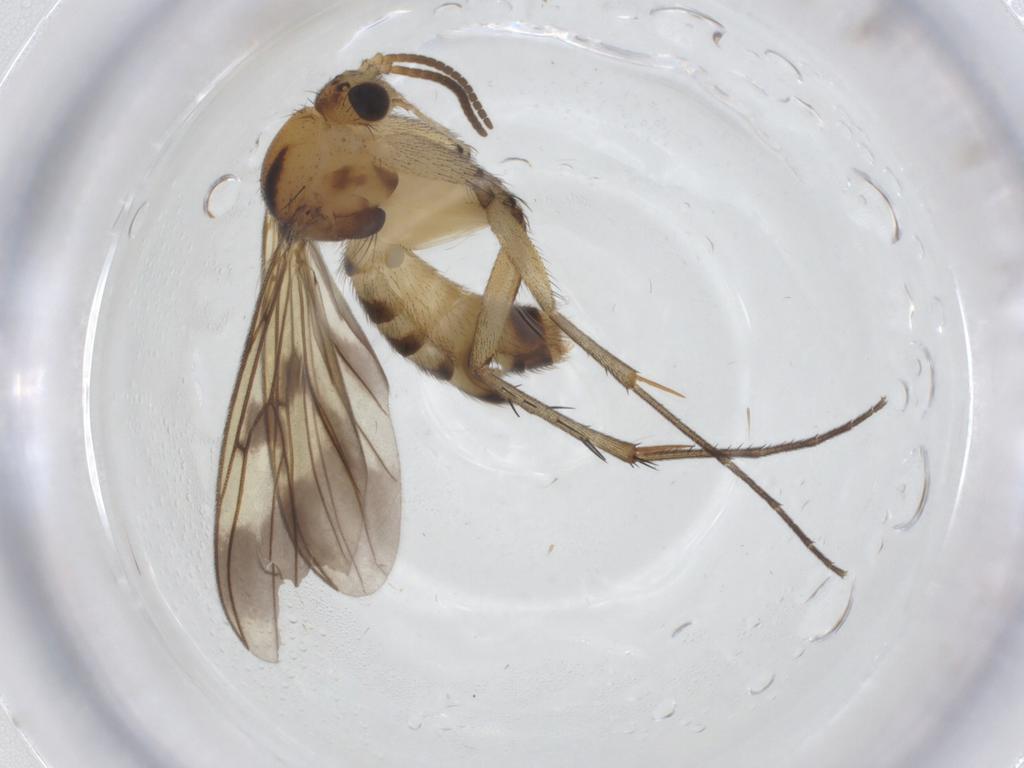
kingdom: Animalia
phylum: Arthropoda
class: Insecta
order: Diptera
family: Mycetophilidae
